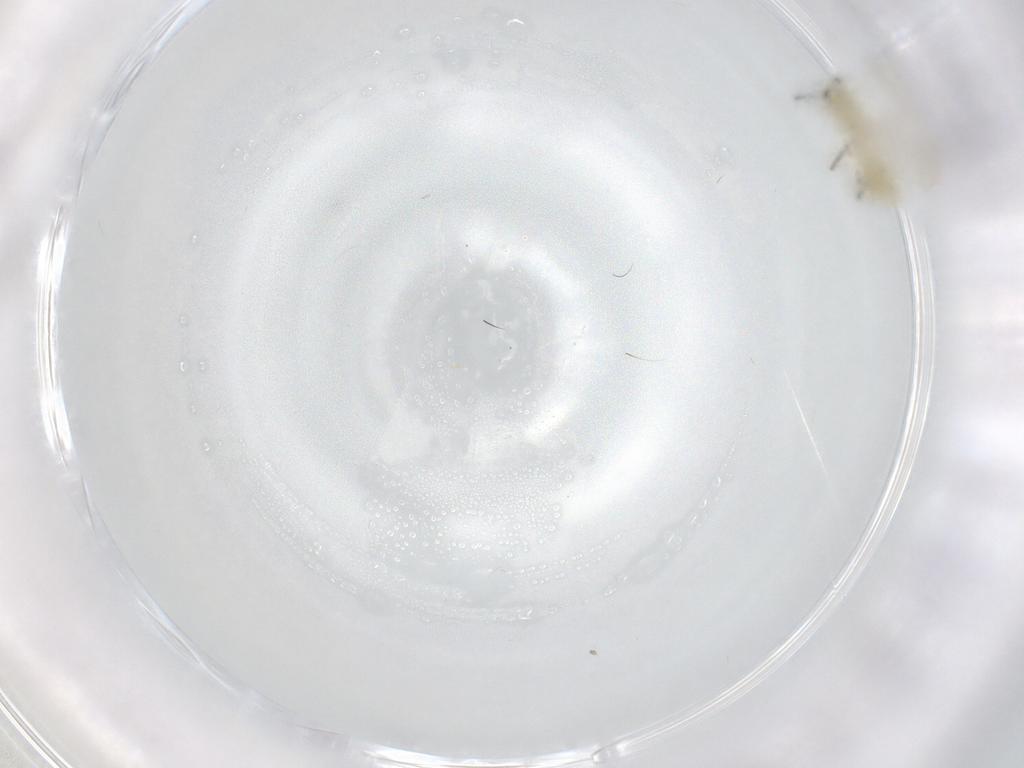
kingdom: Animalia
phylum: Arthropoda
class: Insecta
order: Diptera
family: Chironomidae
